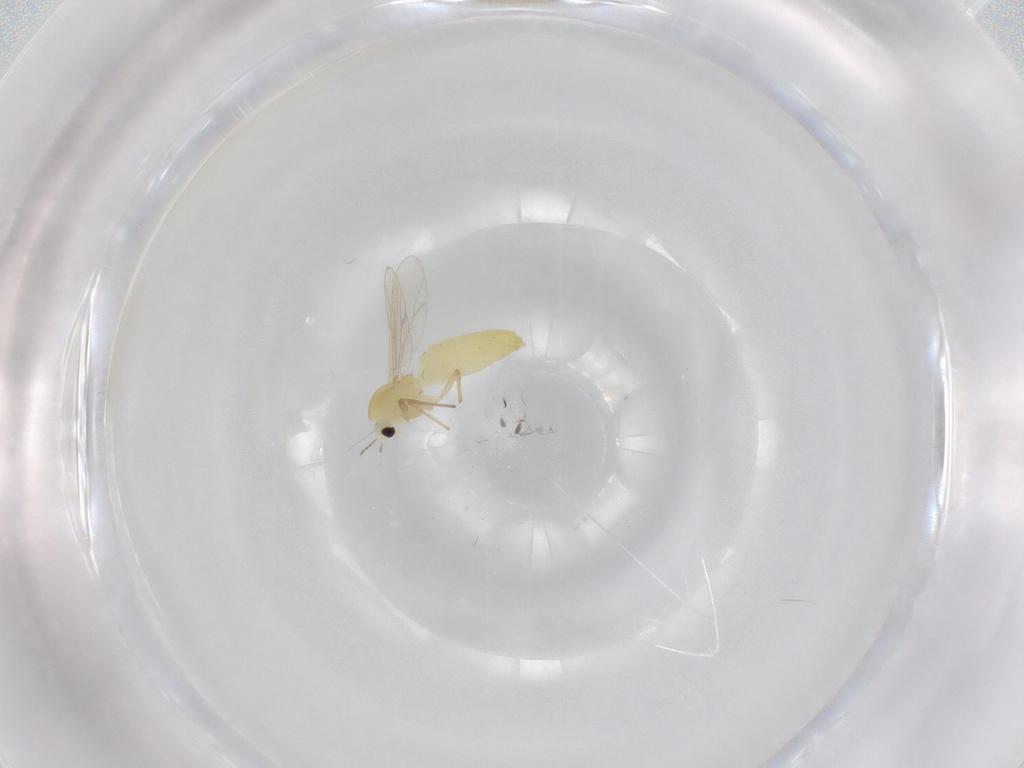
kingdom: Animalia
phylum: Arthropoda
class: Insecta
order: Diptera
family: Chironomidae
